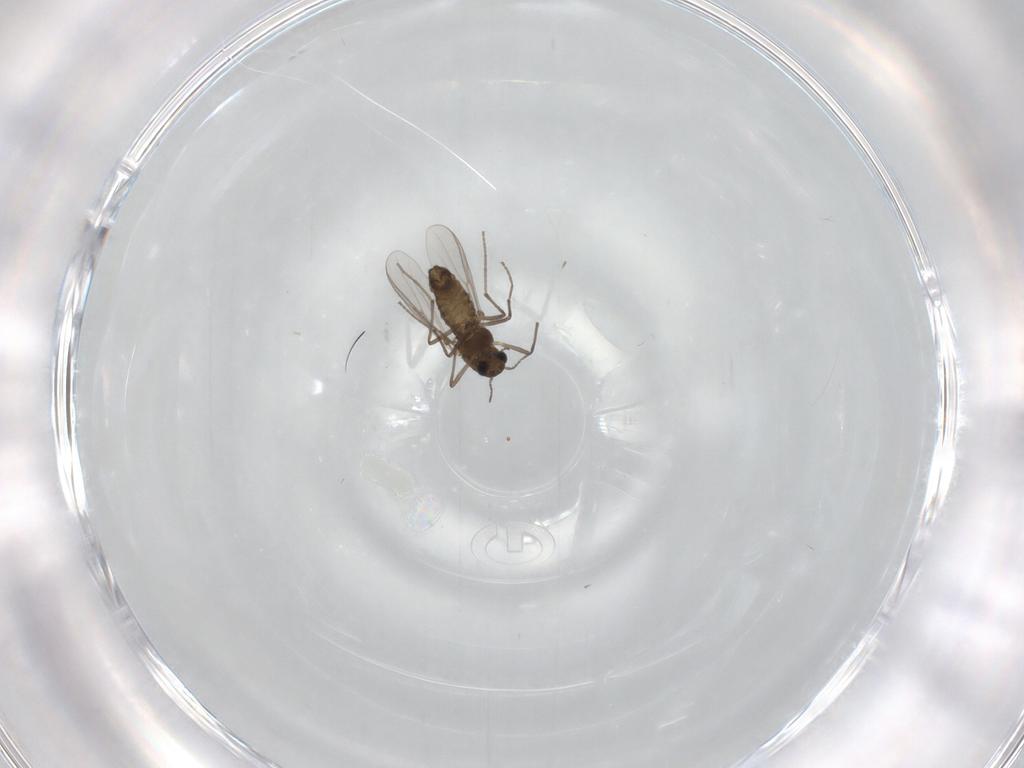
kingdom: Animalia
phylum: Arthropoda
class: Insecta
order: Diptera
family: Chironomidae
